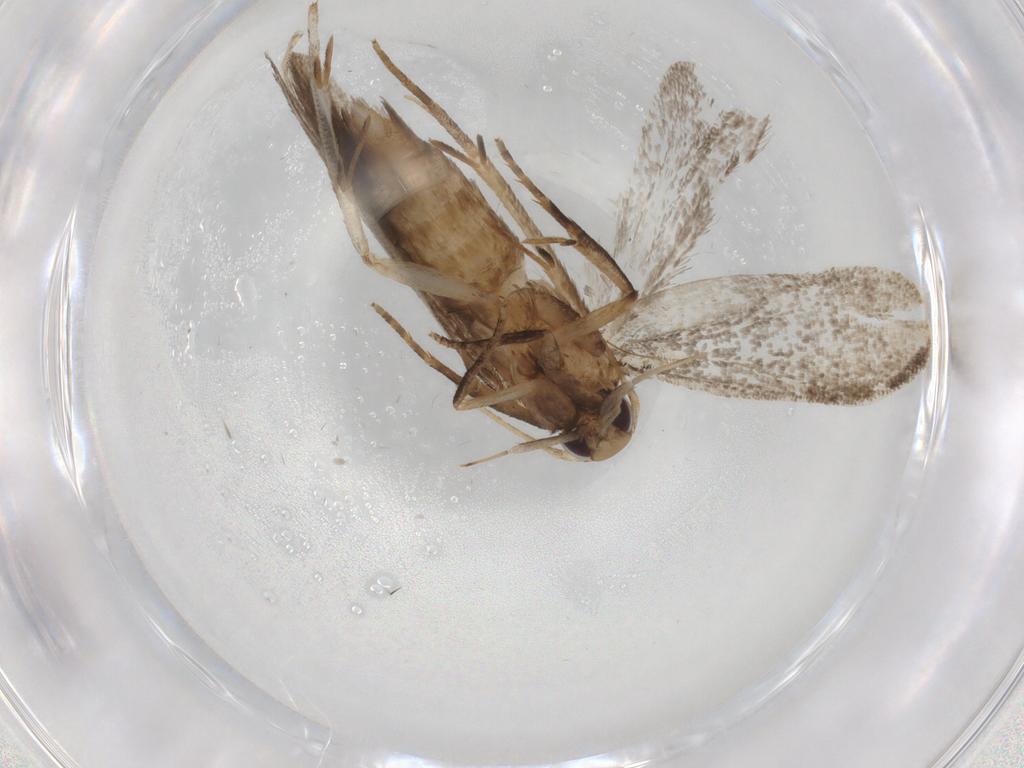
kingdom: Animalia
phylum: Arthropoda
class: Insecta
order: Lepidoptera
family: Gelechiidae
